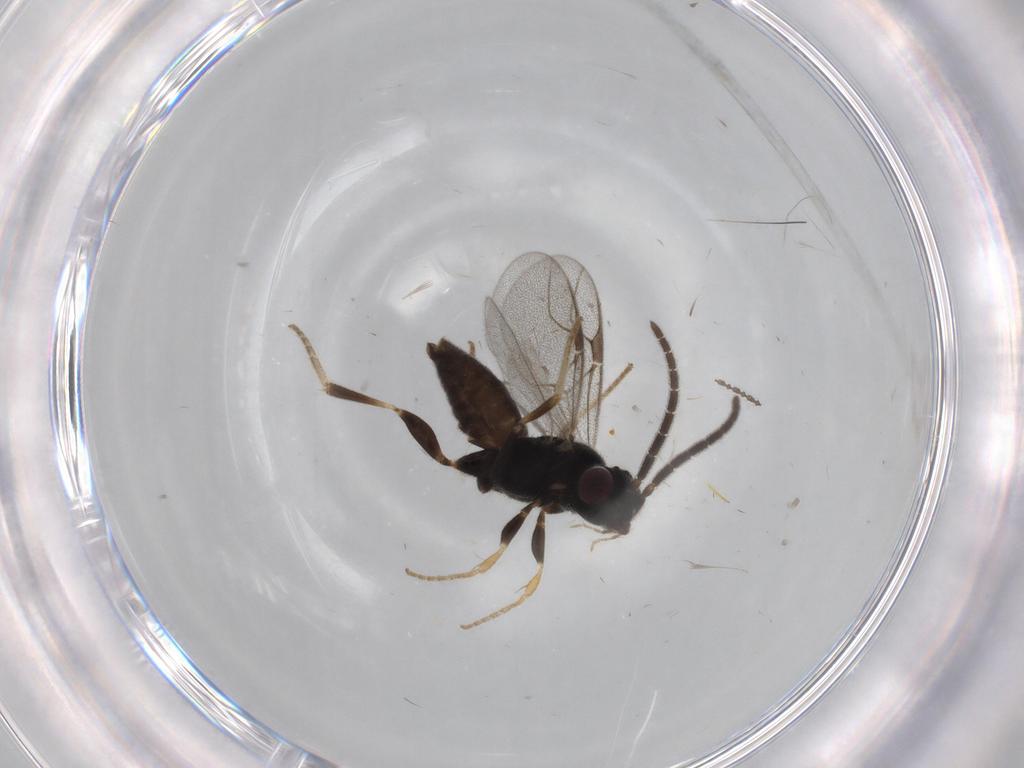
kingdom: Animalia
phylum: Arthropoda
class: Insecta
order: Hymenoptera
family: Dryinidae
